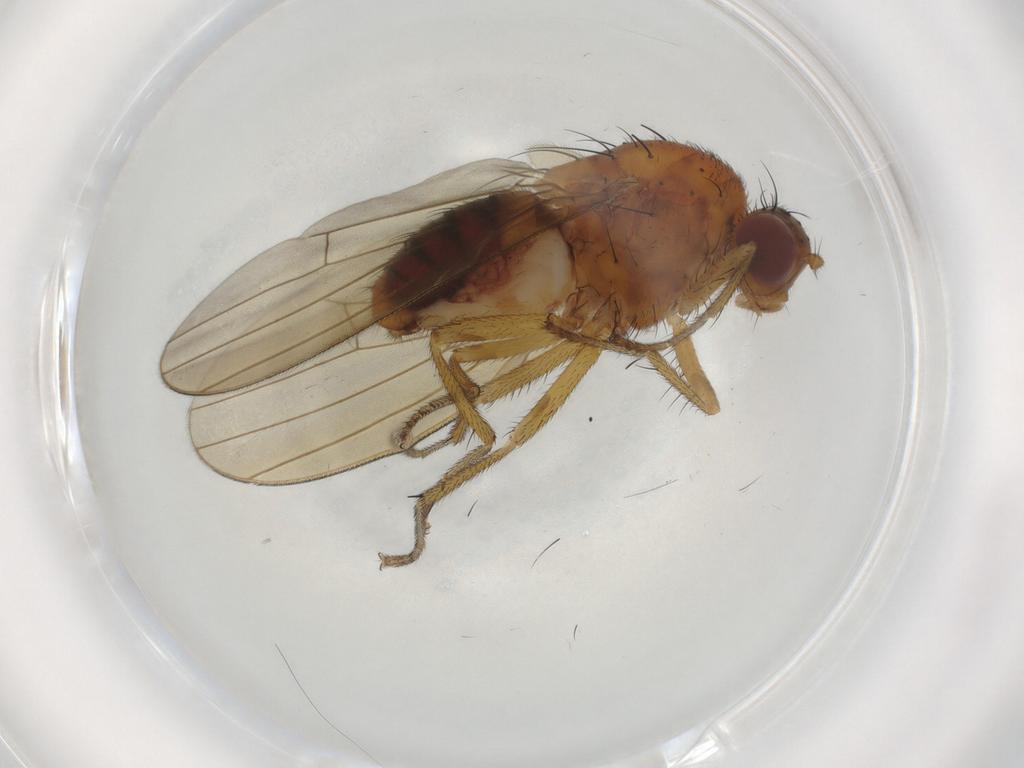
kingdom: Animalia
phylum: Arthropoda
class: Insecta
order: Diptera
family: Lauxaniidae
